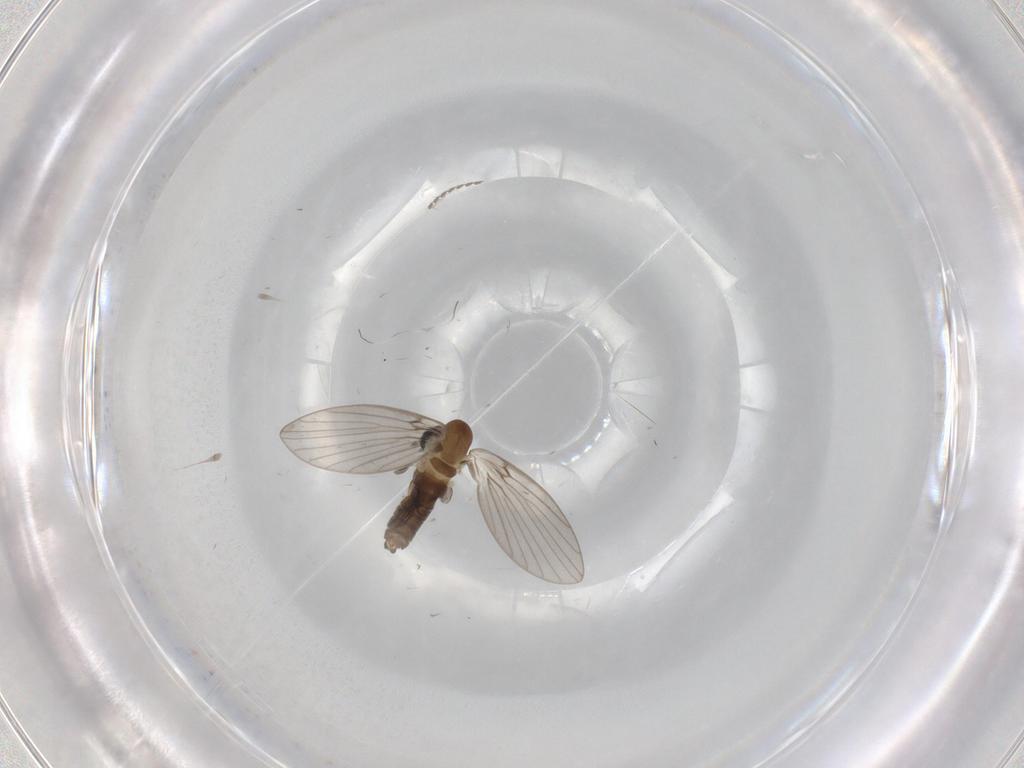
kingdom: Animalia
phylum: Arthropoda
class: Insecta
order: Diptera
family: Psychodidae
